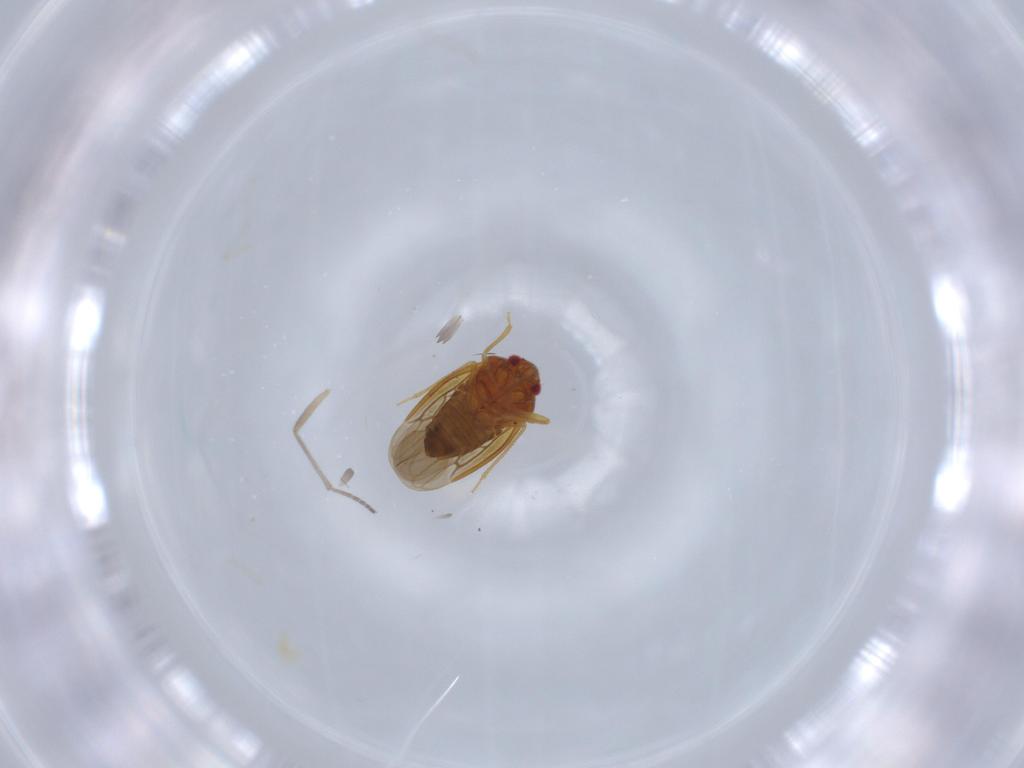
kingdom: Animalia
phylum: Arthropoda
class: Insecta
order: Hemiptera
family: Schizopteridae
